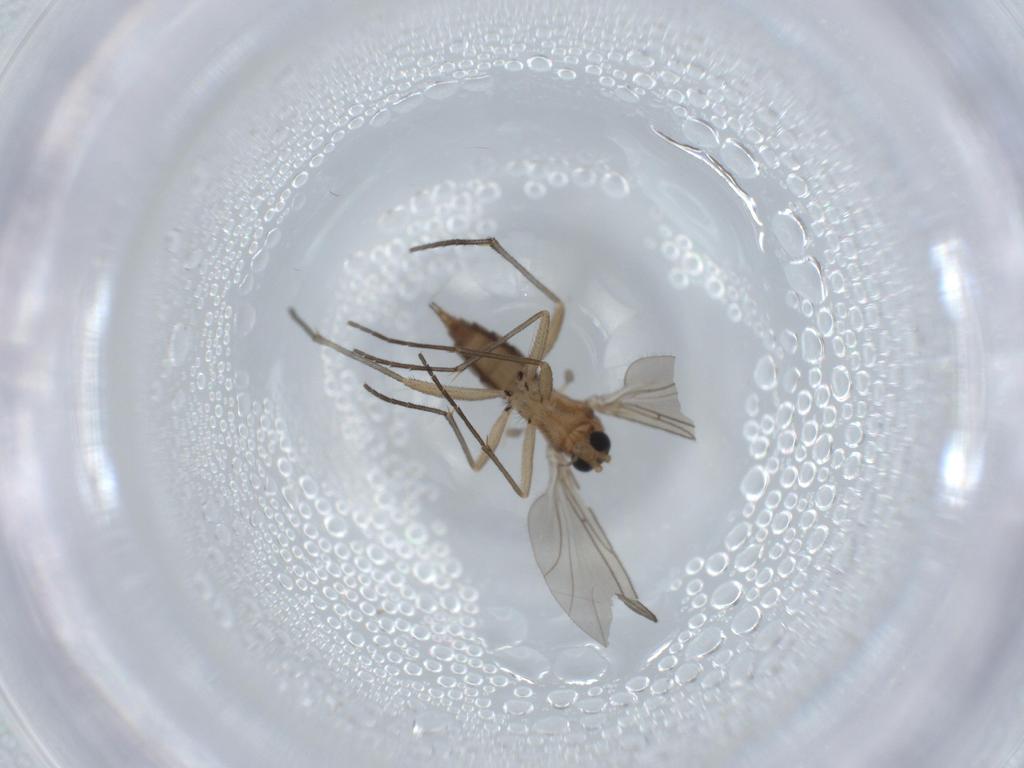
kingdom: Animalia
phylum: Arthropoda
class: Insecta
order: Diptera
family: Sciaridae
